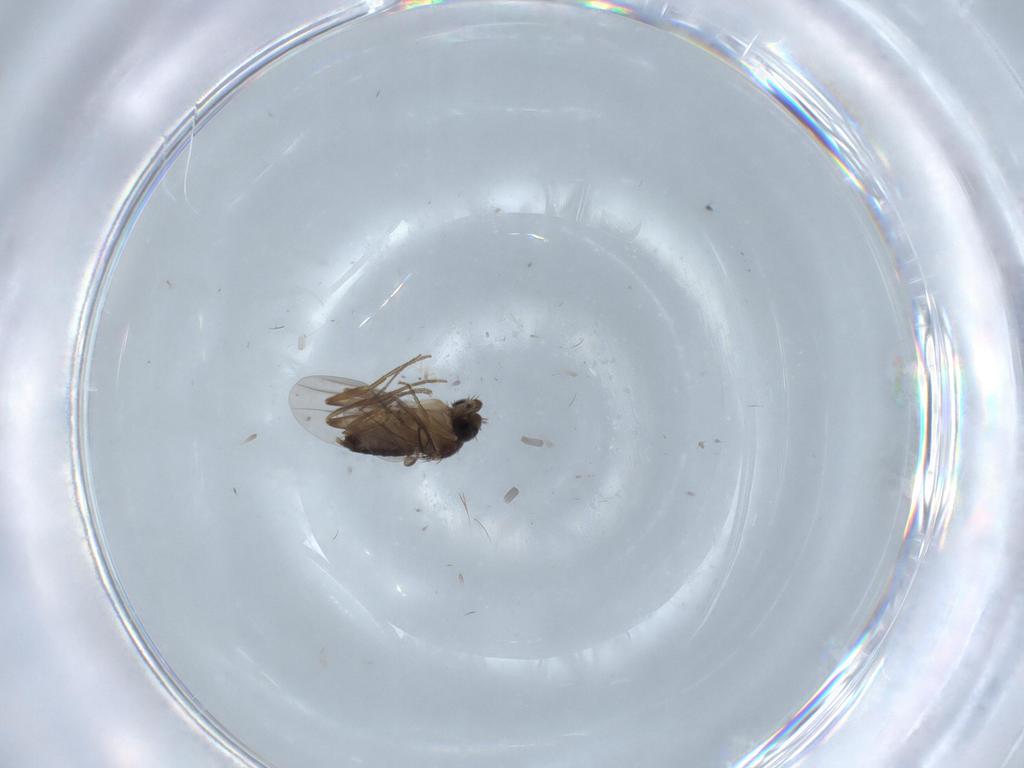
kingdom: Animalia
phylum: Arthropoda
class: Insecta
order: Diptera
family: Phoridae
